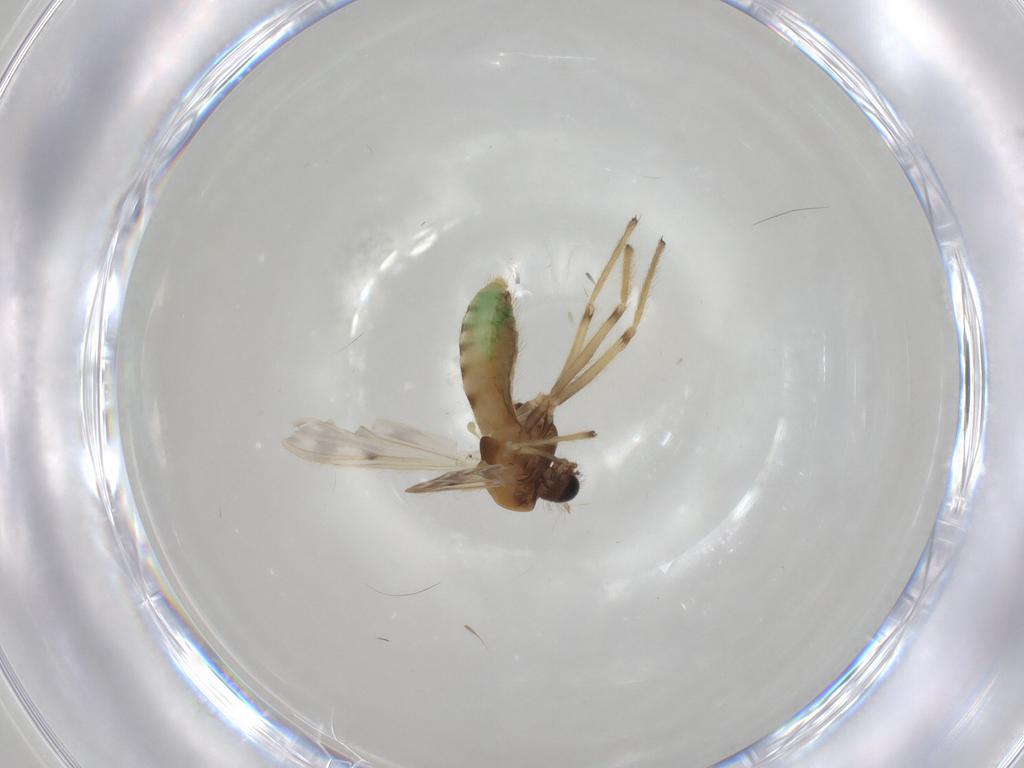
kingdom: Animalia
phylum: Arthropoda
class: Insecta
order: Diptera
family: Chironomidae
